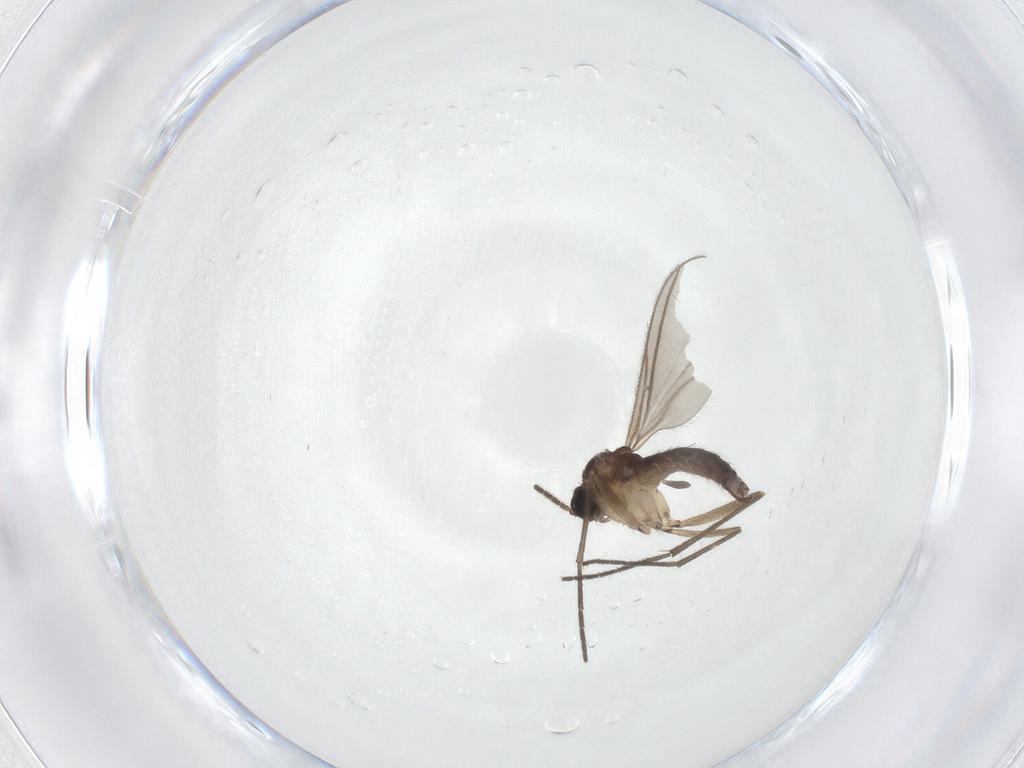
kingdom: Animalia
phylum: Arthropoda
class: Insecta
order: Diptera
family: Sciaridae
